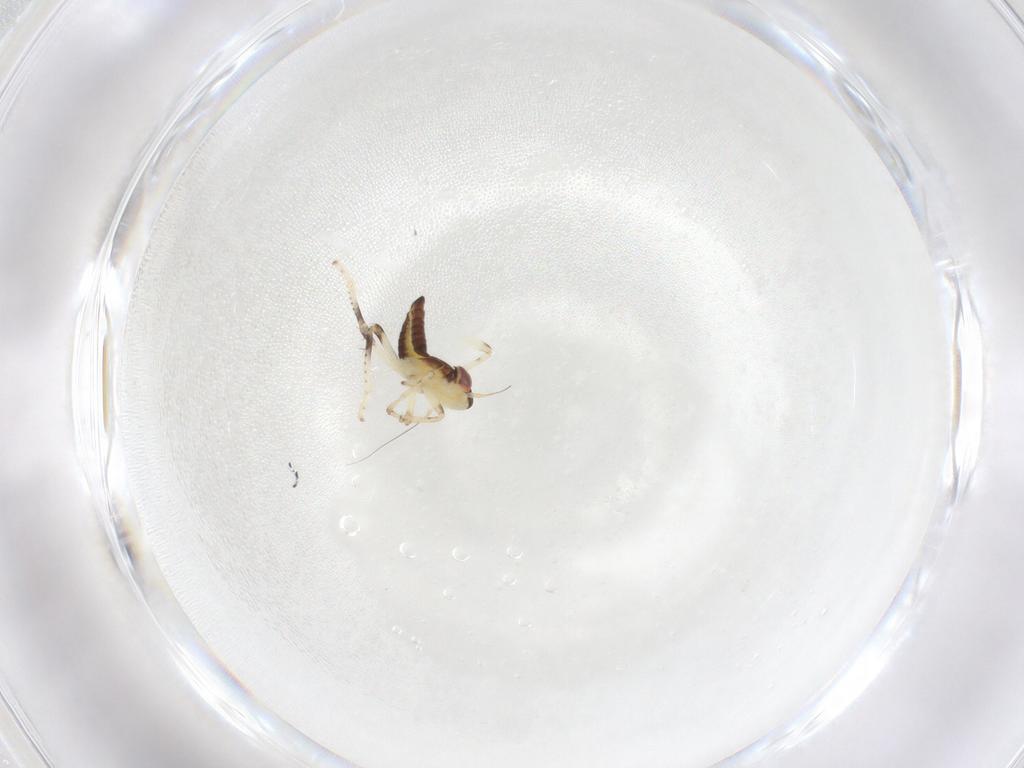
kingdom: Animalia
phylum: Arthropoda
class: Insecta
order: Hemiptera
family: Cicadellidae
